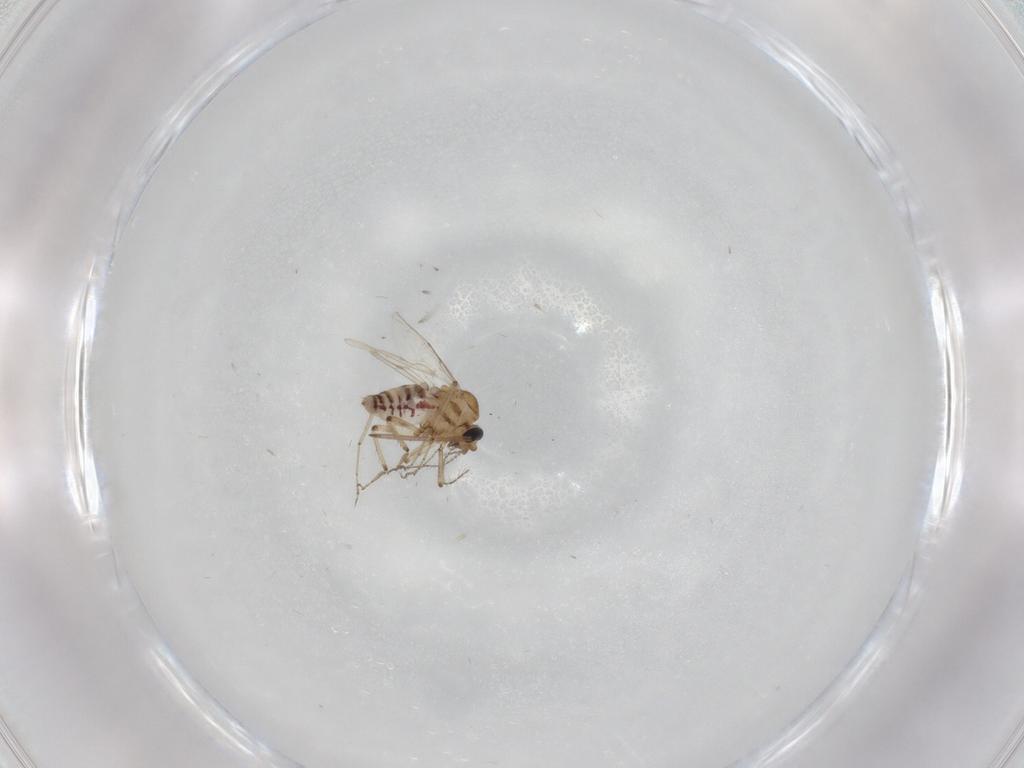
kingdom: Animalia
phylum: Arthropoda
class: Insecta
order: Diptera
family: Ceratopogonidae
